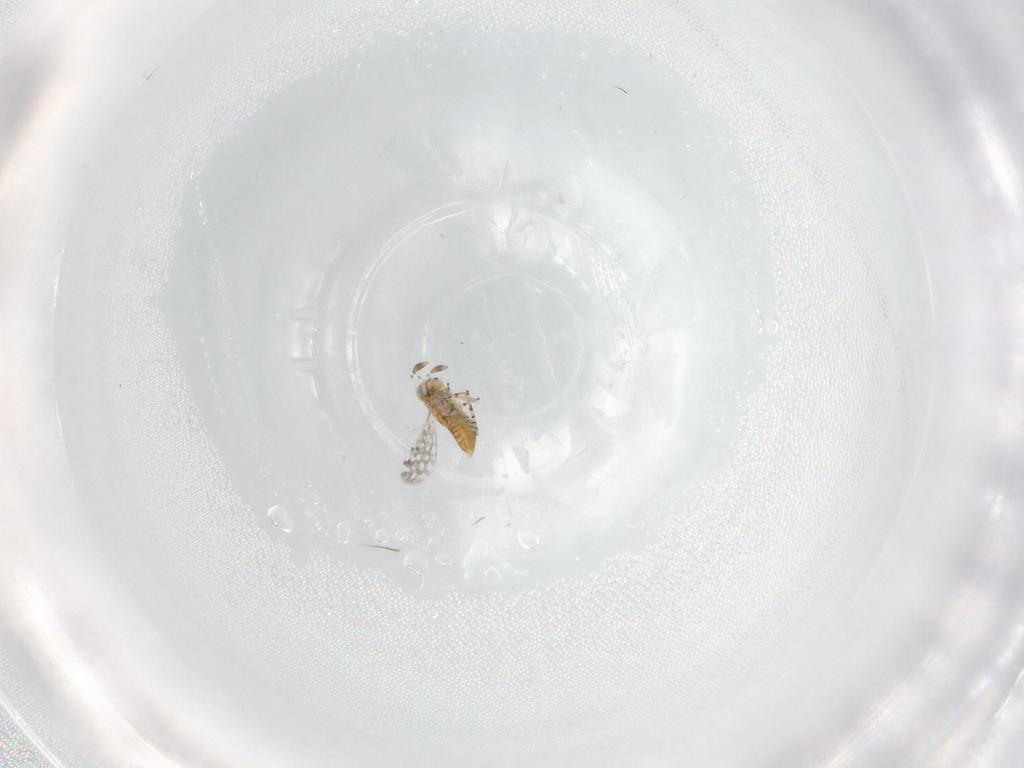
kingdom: Animalia
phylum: Arthropoda
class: Insecta
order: Hymenoptera
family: Aphelinidae
